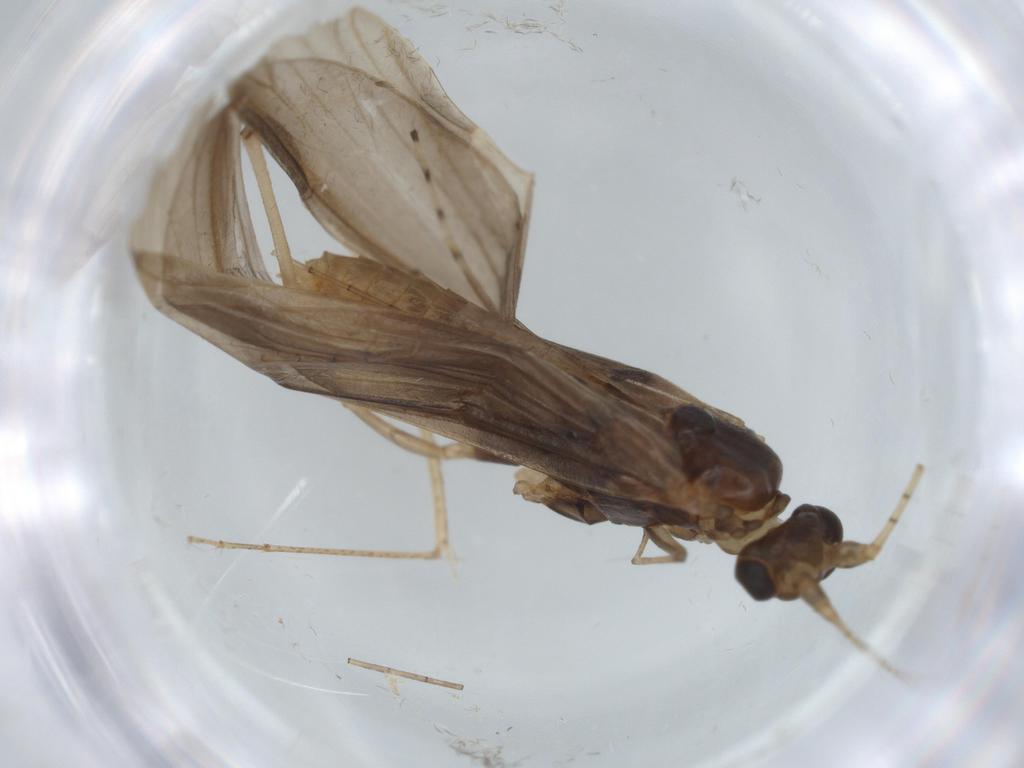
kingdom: Animalia
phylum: Arthropoda
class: Insecta
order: Trichoptera
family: Leptoceridae
